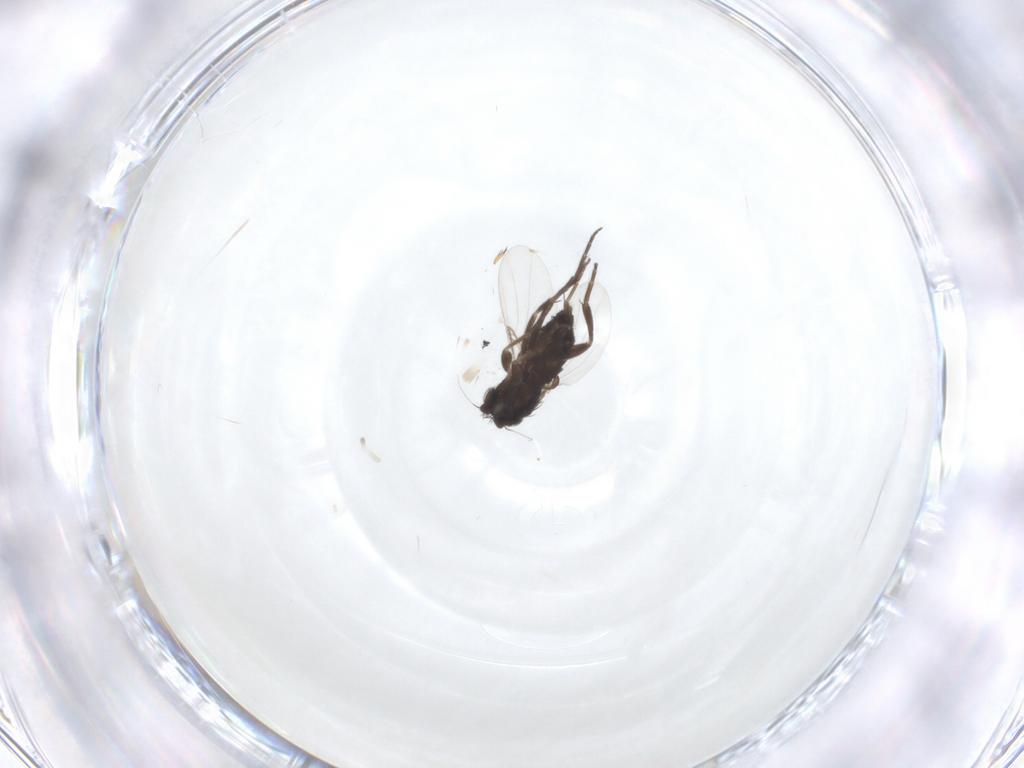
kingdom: Animalia
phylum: Arthropoda
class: Insecta
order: Diptera
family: Phoridae
